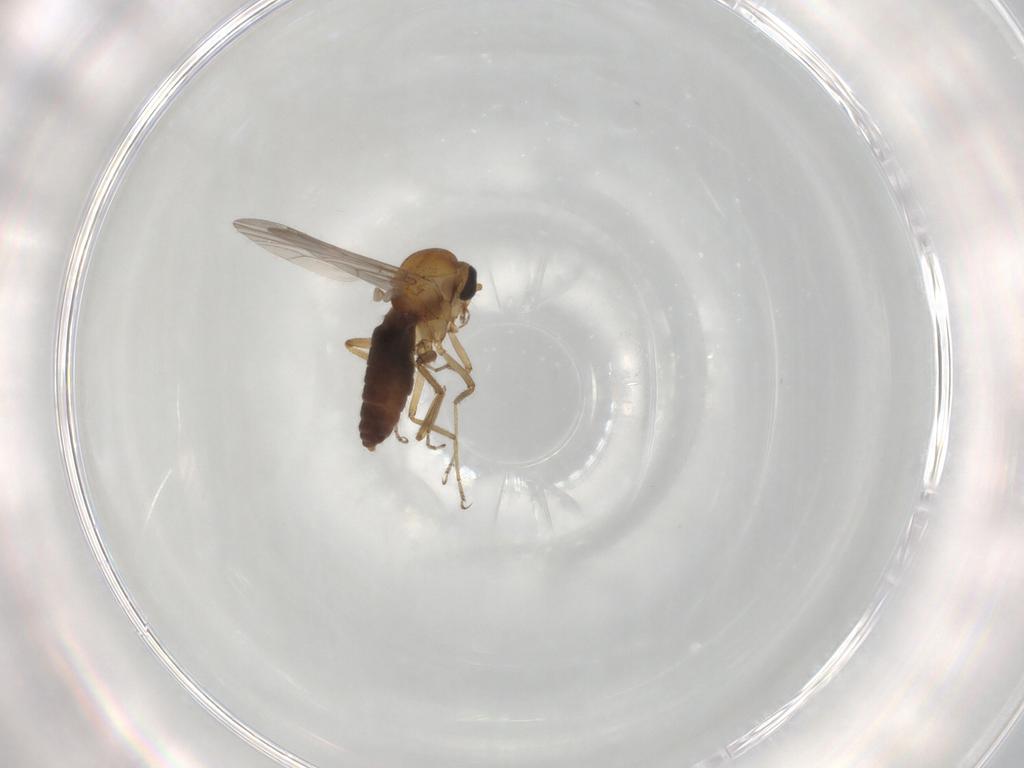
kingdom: Animalia
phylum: Arthropoda
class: Insecta
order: Diptera
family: Ceratopogonidae
